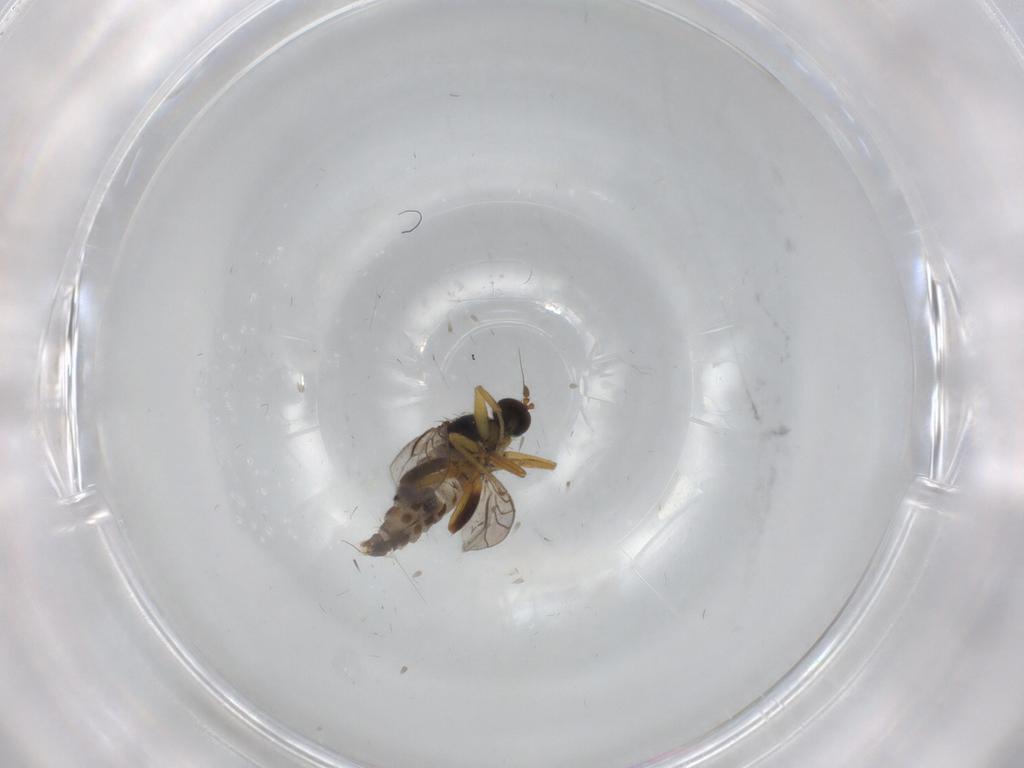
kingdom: Animalia
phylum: Arthropoda
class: Insecta
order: Diptera
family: Hybotidae
